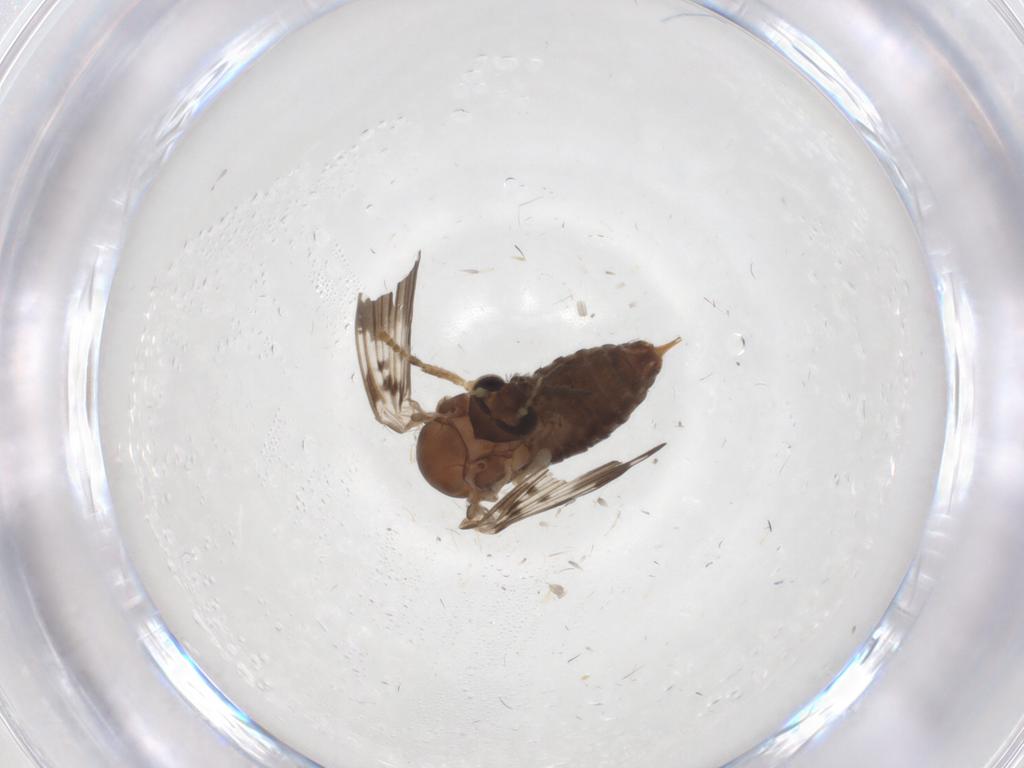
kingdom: Animalia
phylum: Arthropoda
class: Insecta
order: Diptera
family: Psychodidae
